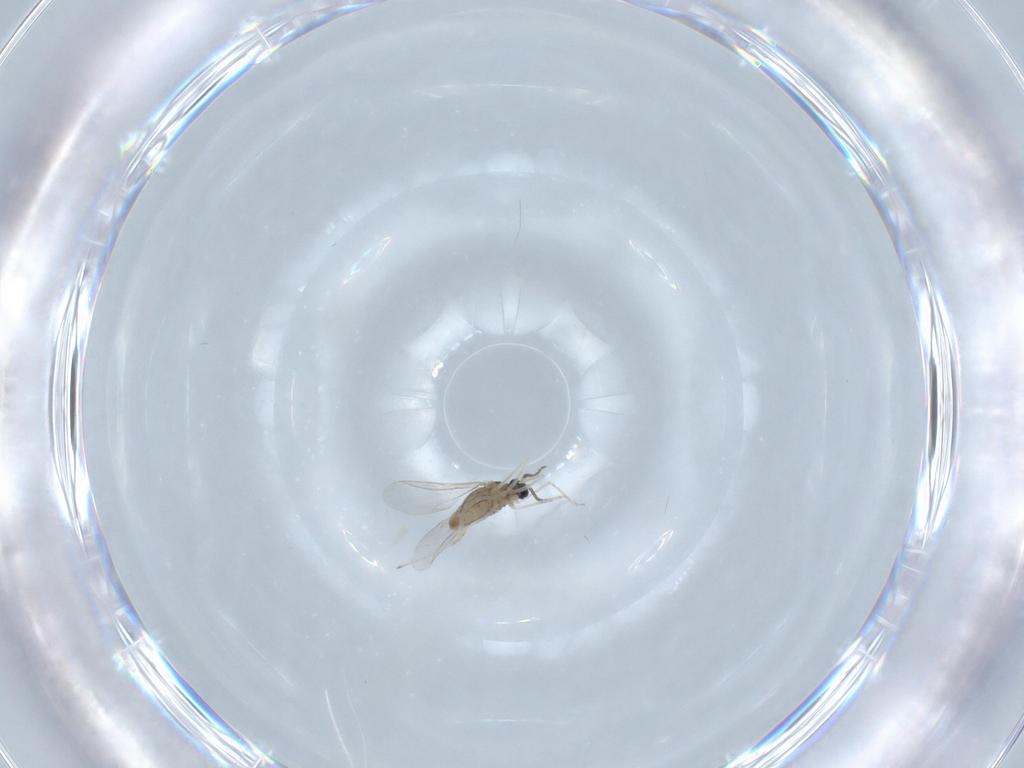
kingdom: Animalia
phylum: Arthropoda
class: Insecta
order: Diptera
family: Cecidomyiidae
